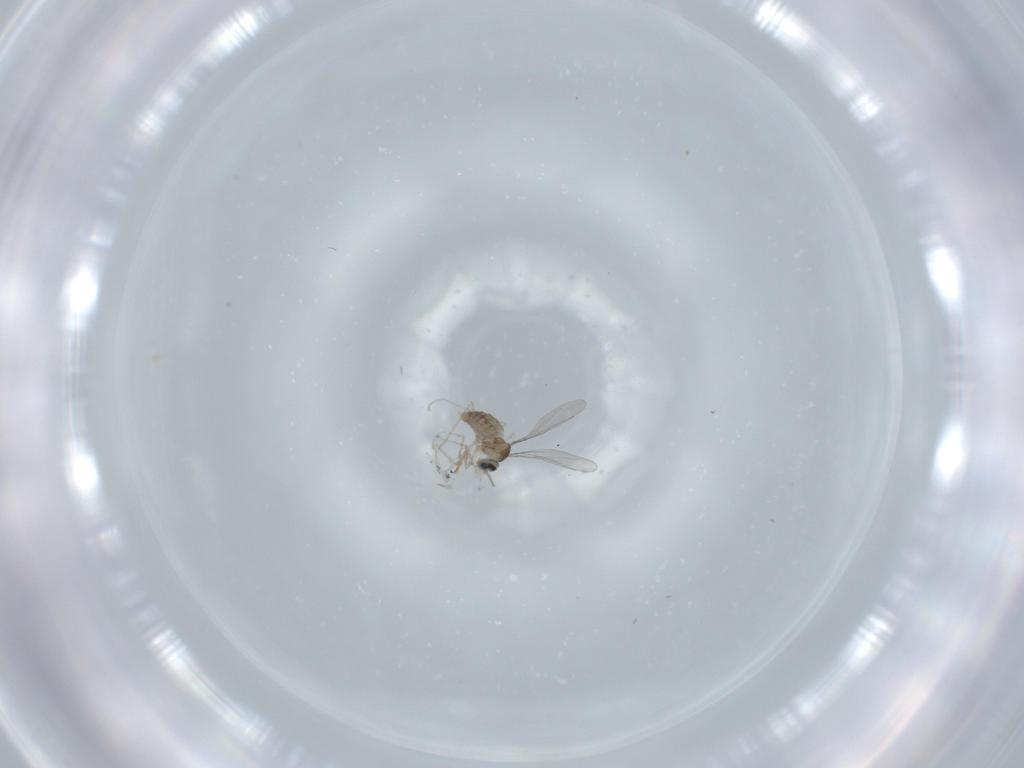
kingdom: Animalia
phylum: Arthropoda
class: Insecta
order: Diptera
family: Cecidomyiidae
